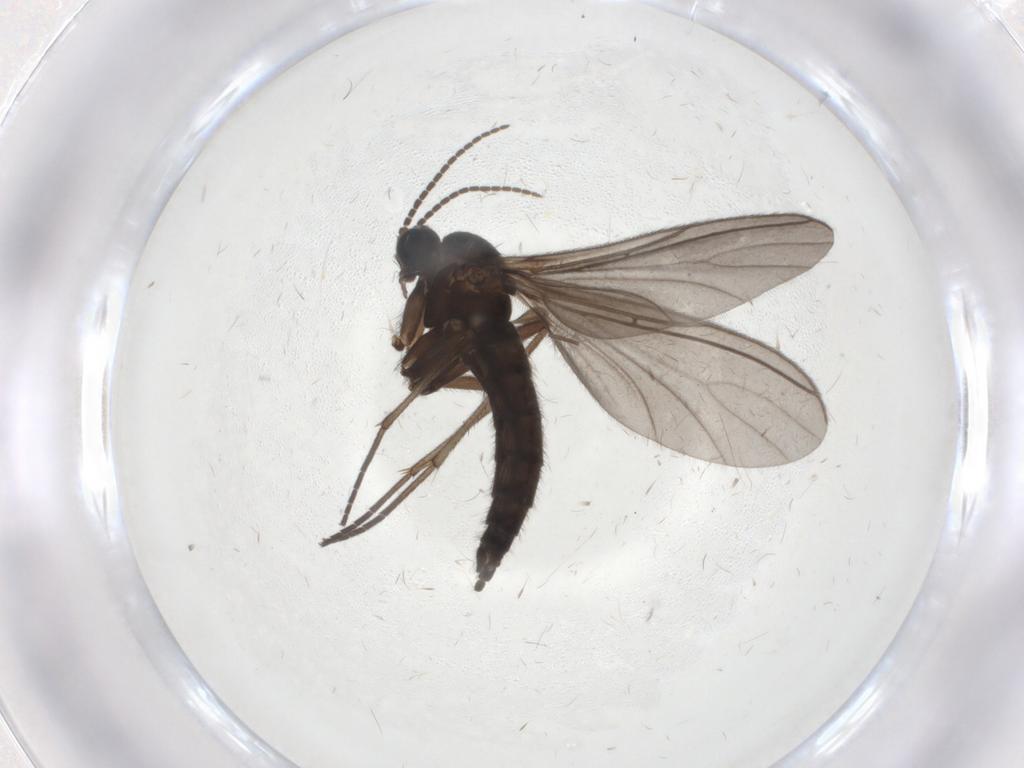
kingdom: Animalia
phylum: Arthropoda
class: Insecta
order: Diptera
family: Sciaridae
